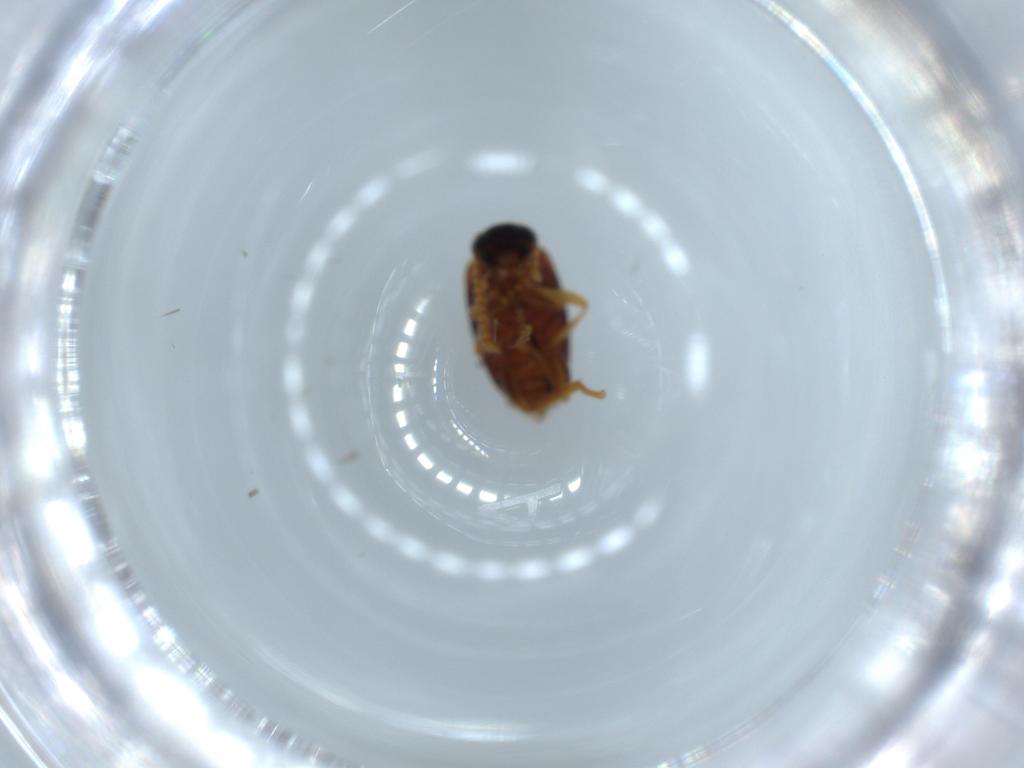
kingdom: Animalia
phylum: Arthropoda
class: Insecta
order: Coleoptera
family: Aderidae
